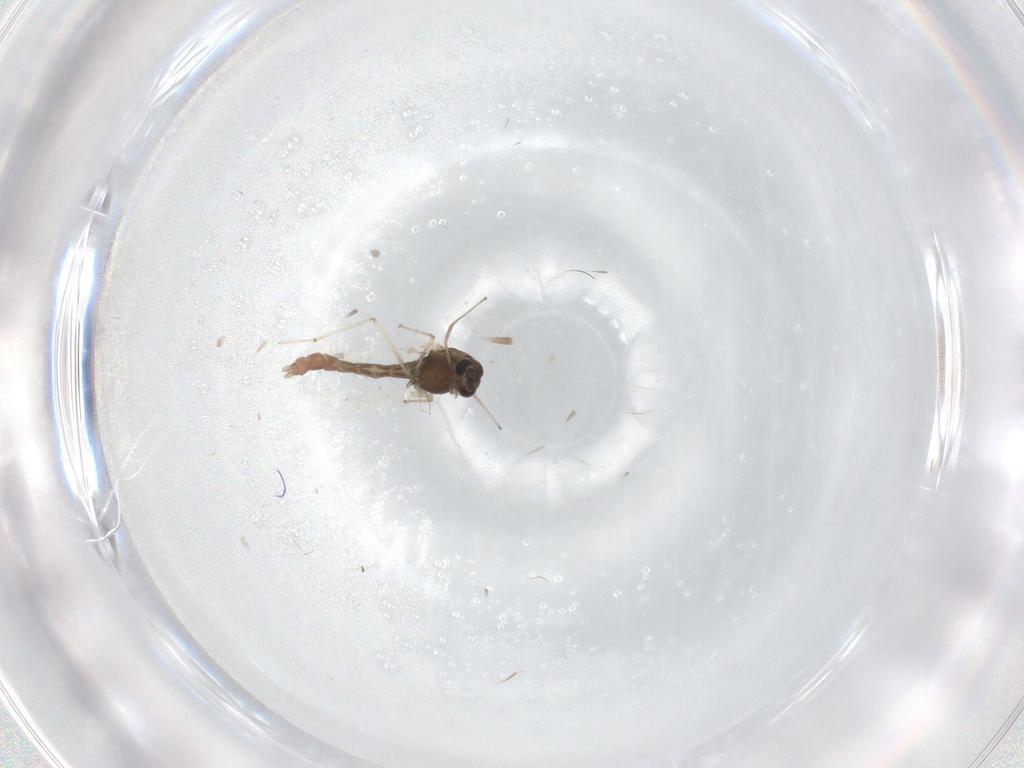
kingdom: Animalia
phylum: Arthropoda
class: Insecta
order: Diptera
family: Chironomidae
